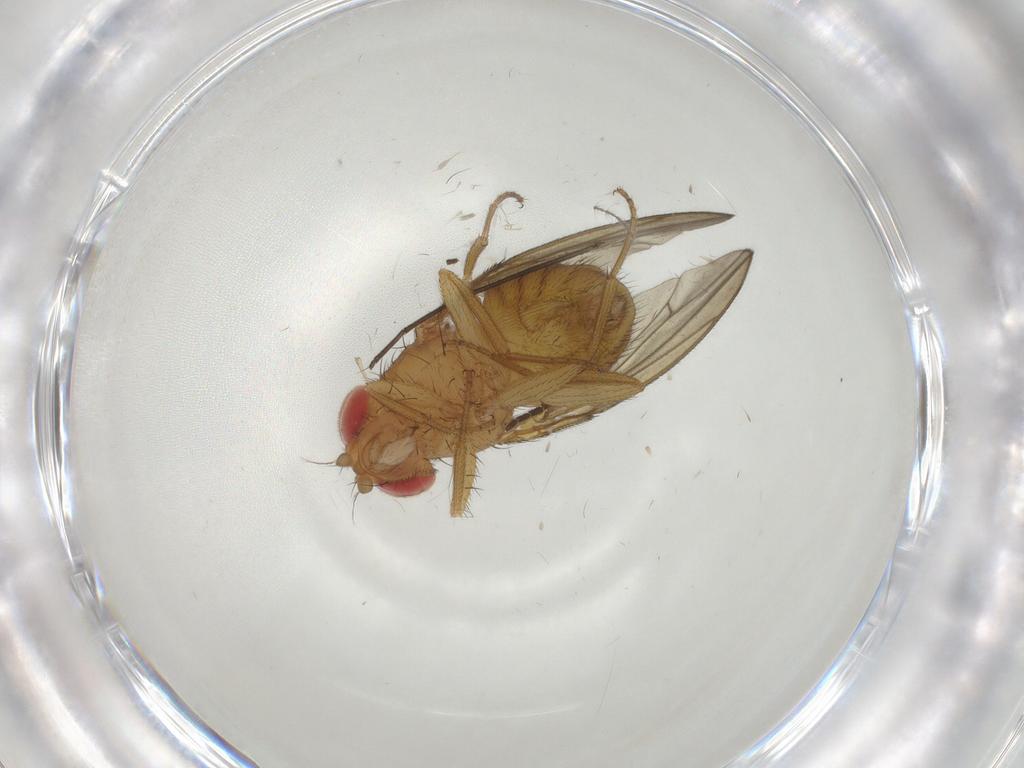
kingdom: Animalia
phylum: Arthropoda
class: Insecta
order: Diptera
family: Drosophilidae
